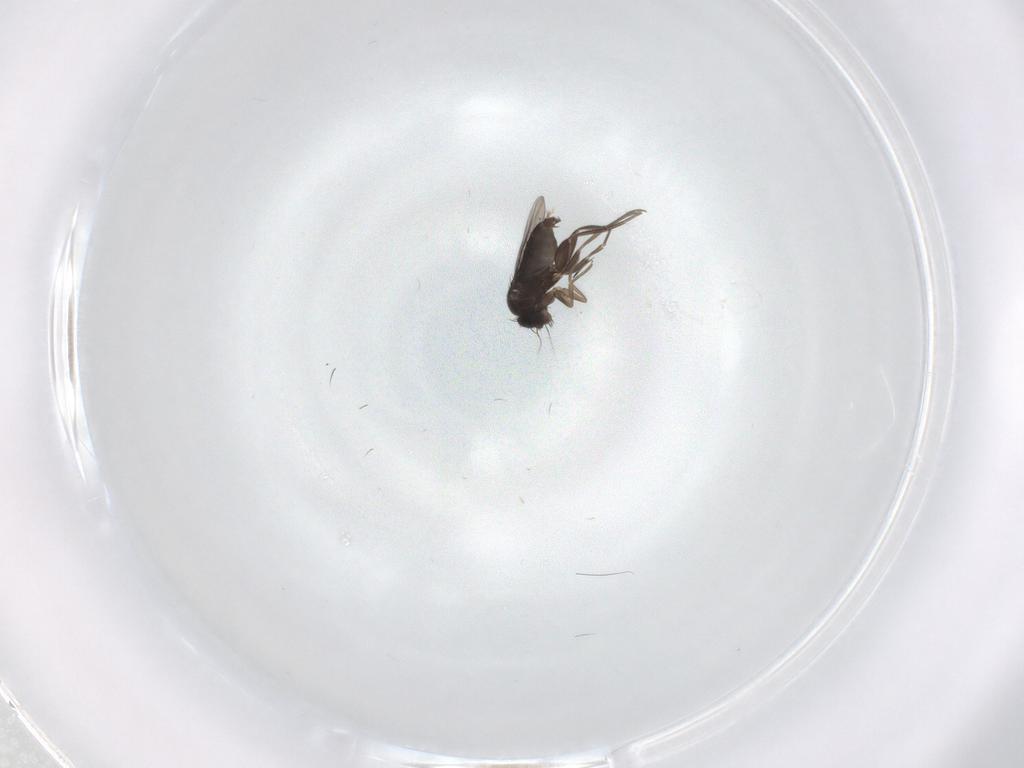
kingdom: Animalia
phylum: Arthropoda
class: Insecta
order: Diptera
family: Phoridae
